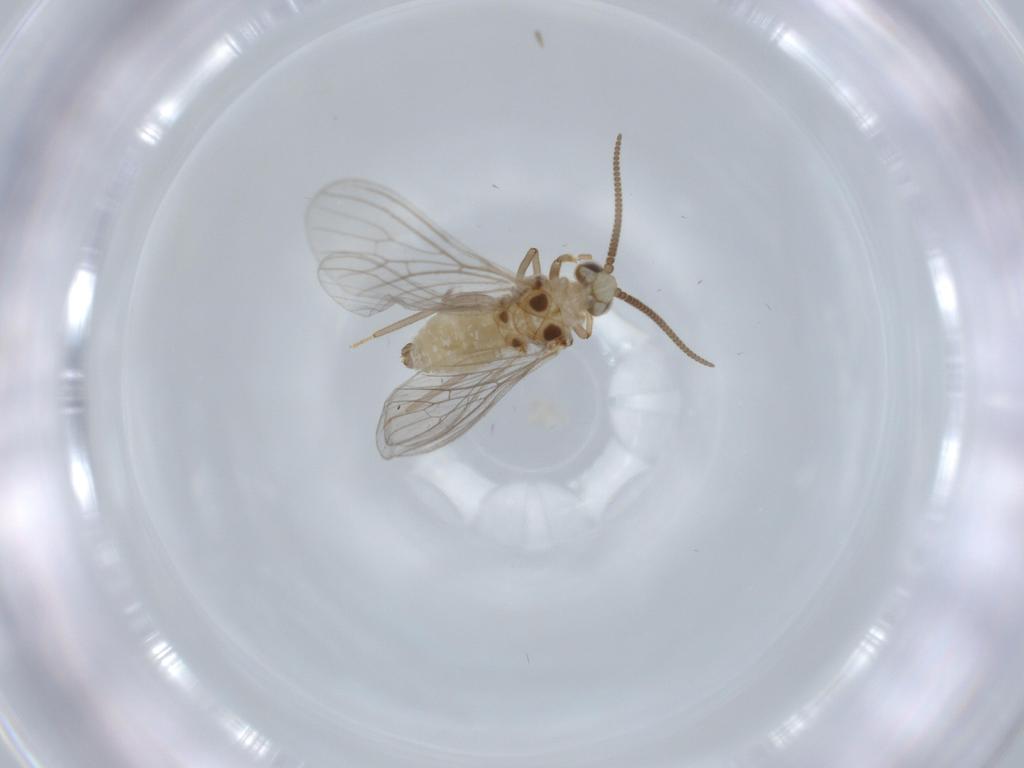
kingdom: Animalia
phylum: Arthropoda
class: Insecta
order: Neuroptera
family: Coniopterygidae
